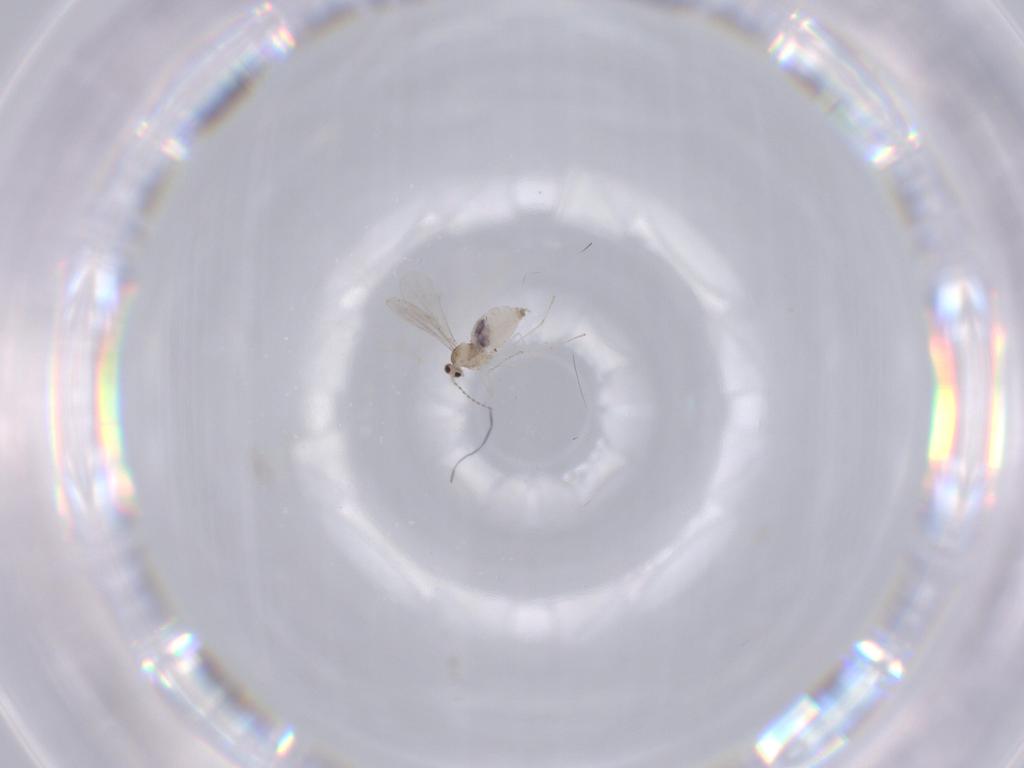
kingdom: Animalia
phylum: Arthropoda
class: Insecta
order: Diptera
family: Cecidomyiidae
